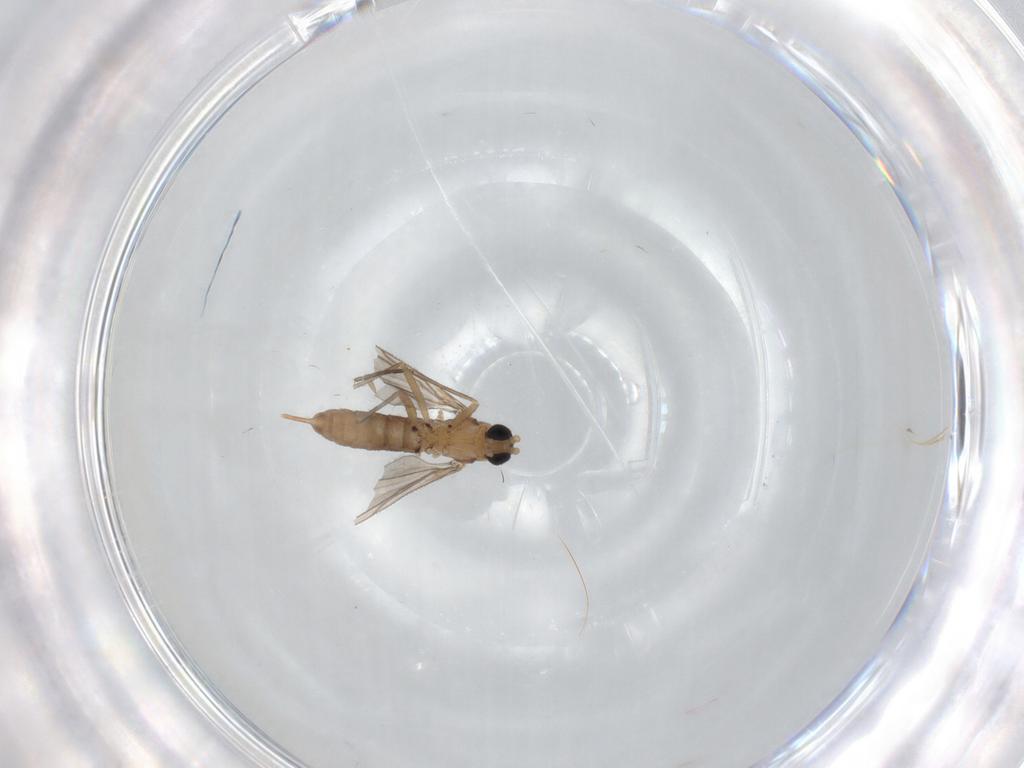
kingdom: Animalia
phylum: Arthropoda
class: Insecta
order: Diptera
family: Sciaridae
